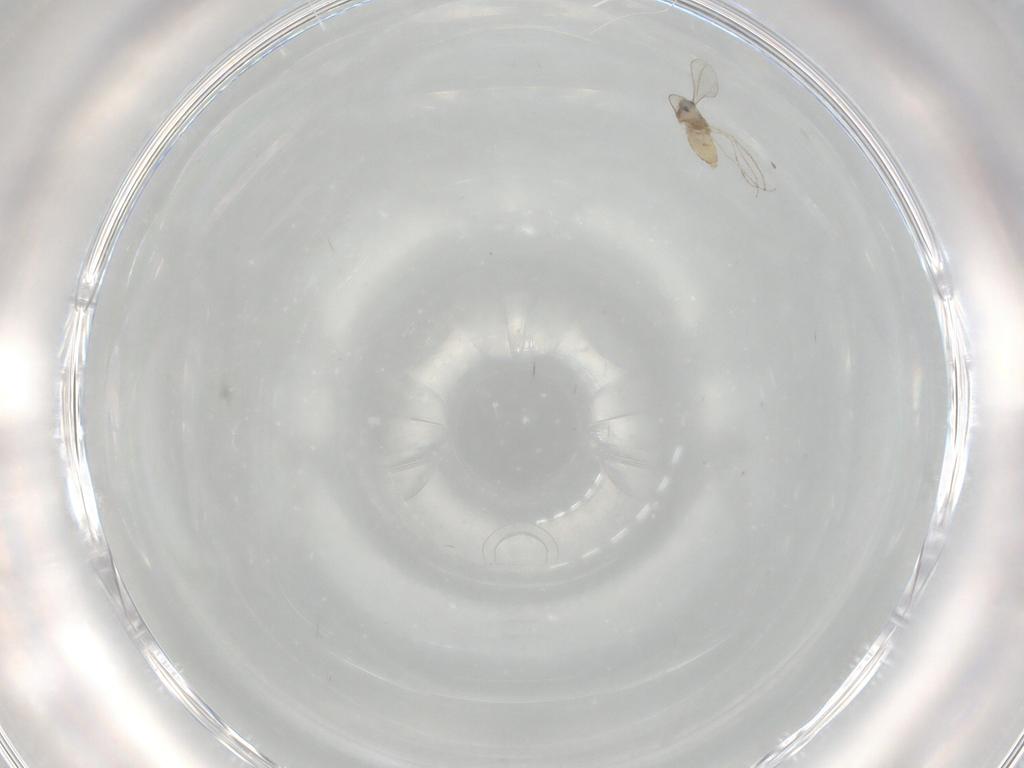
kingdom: Animalia
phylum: Arthropoda
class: Insecta
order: Diptera
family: Cecidomyiidae
